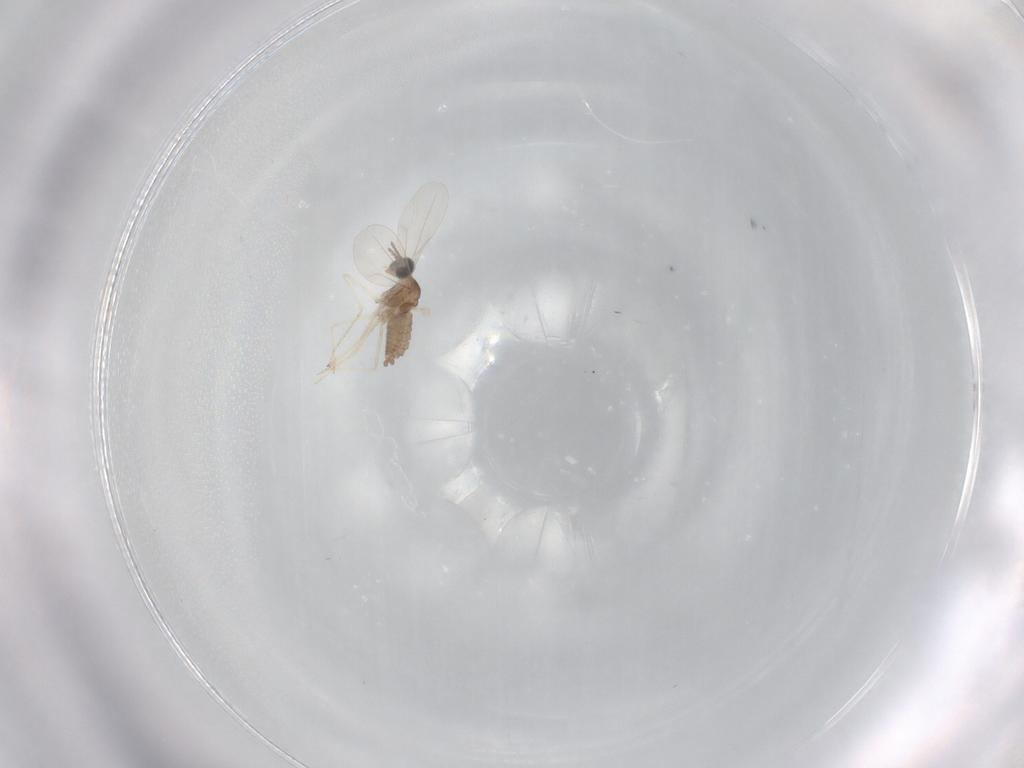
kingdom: Animalia
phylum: Arthropoda
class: Insecta
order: Diptera
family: Cecidomyiidae
